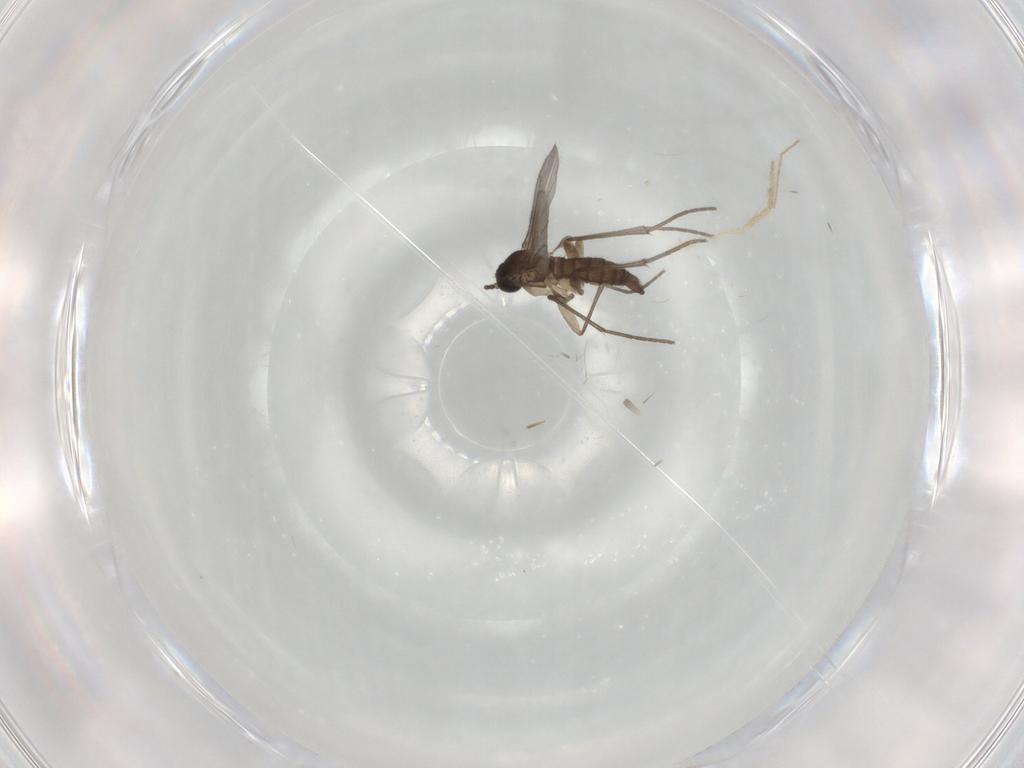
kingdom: Animalia
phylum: Arthropoda
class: Insecta
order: Diptera
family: Sciaridae
